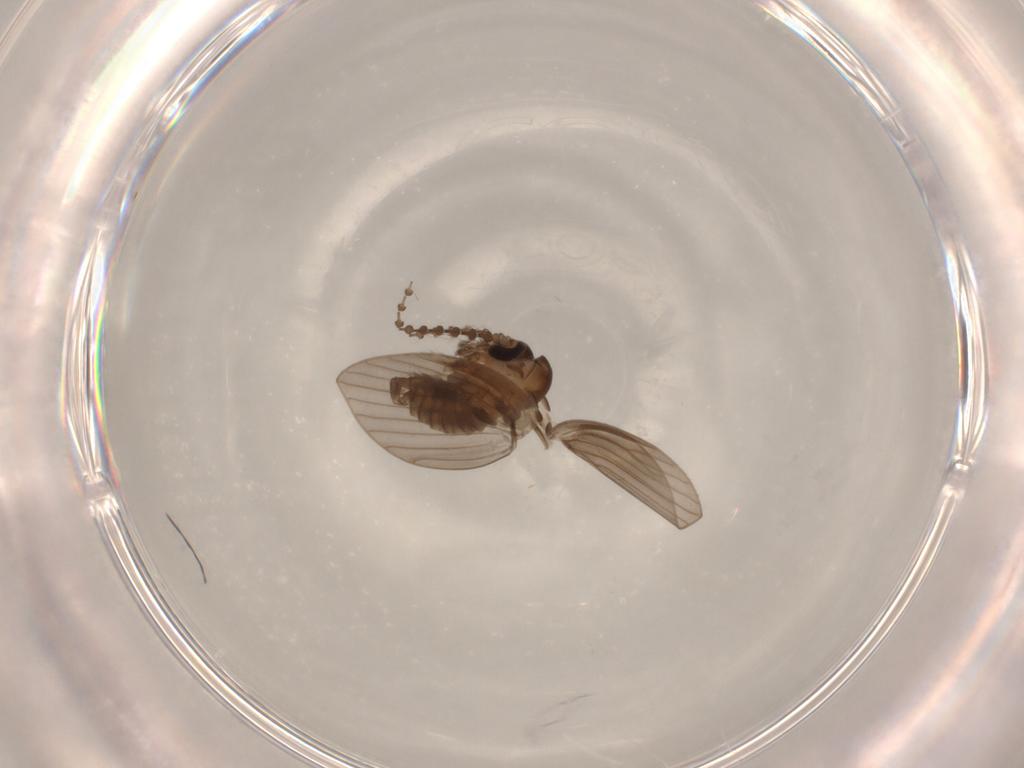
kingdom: Animalia
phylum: Arthropoda
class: Insecta
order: Diptera
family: Psychodidae
